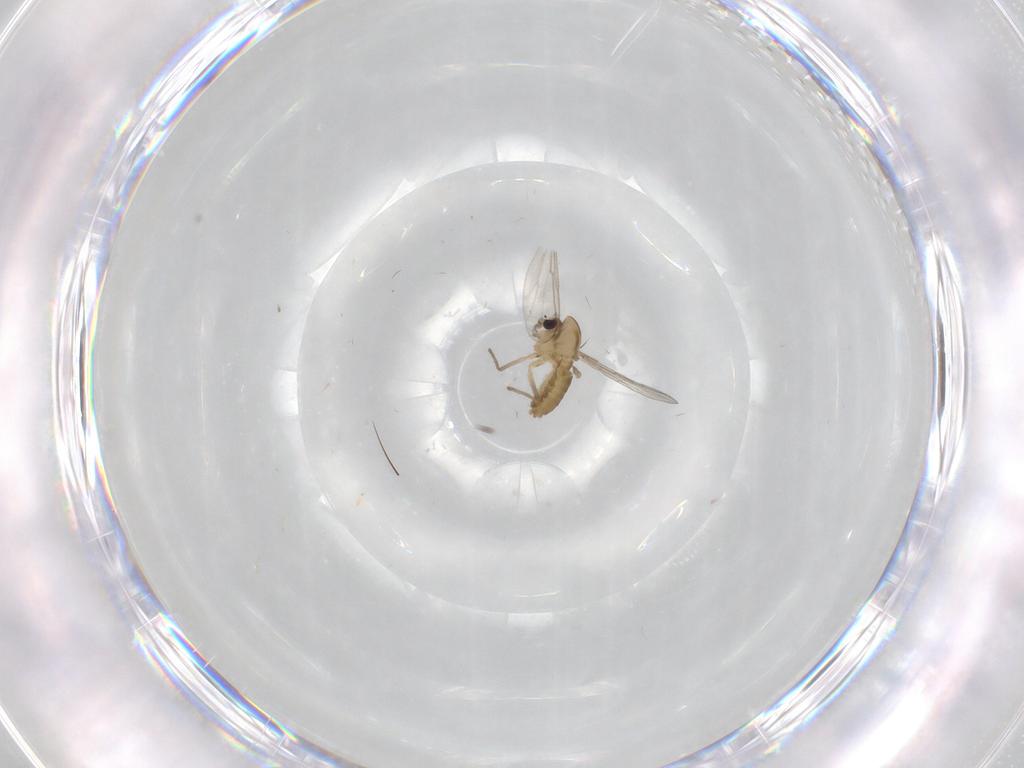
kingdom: Animalia
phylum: Arthropoda
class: Insecta
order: Diptera
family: Chironomidae
